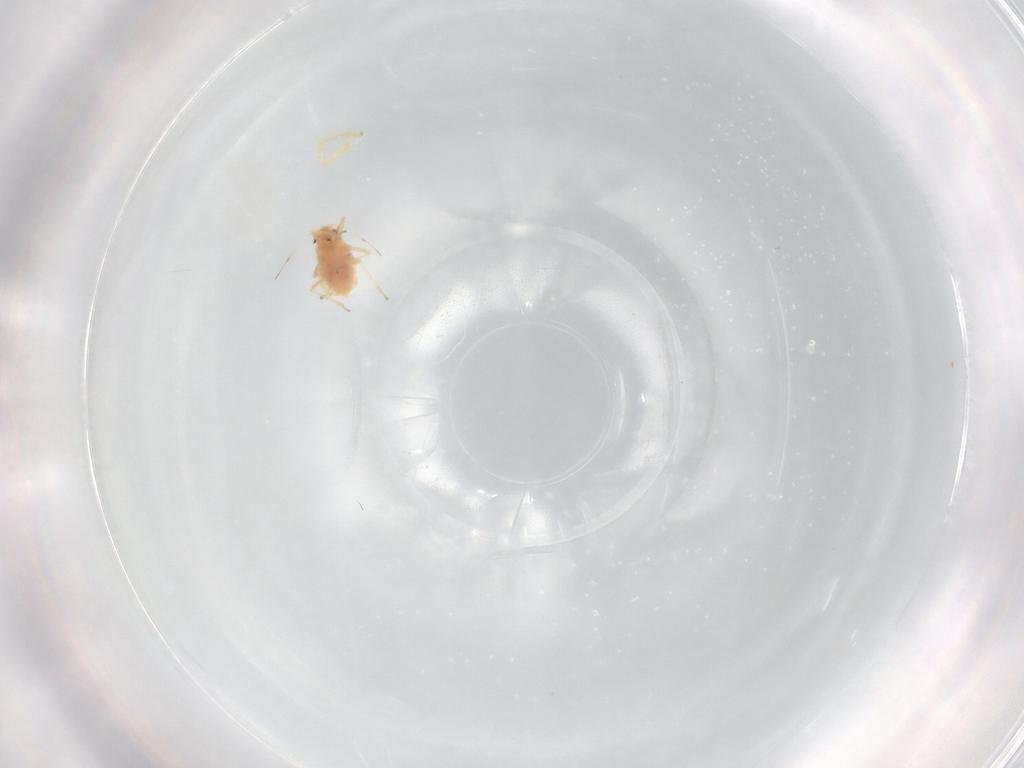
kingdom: Animalia
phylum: Arthropoda
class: Insecta
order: Hemiptera
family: Aphididae
